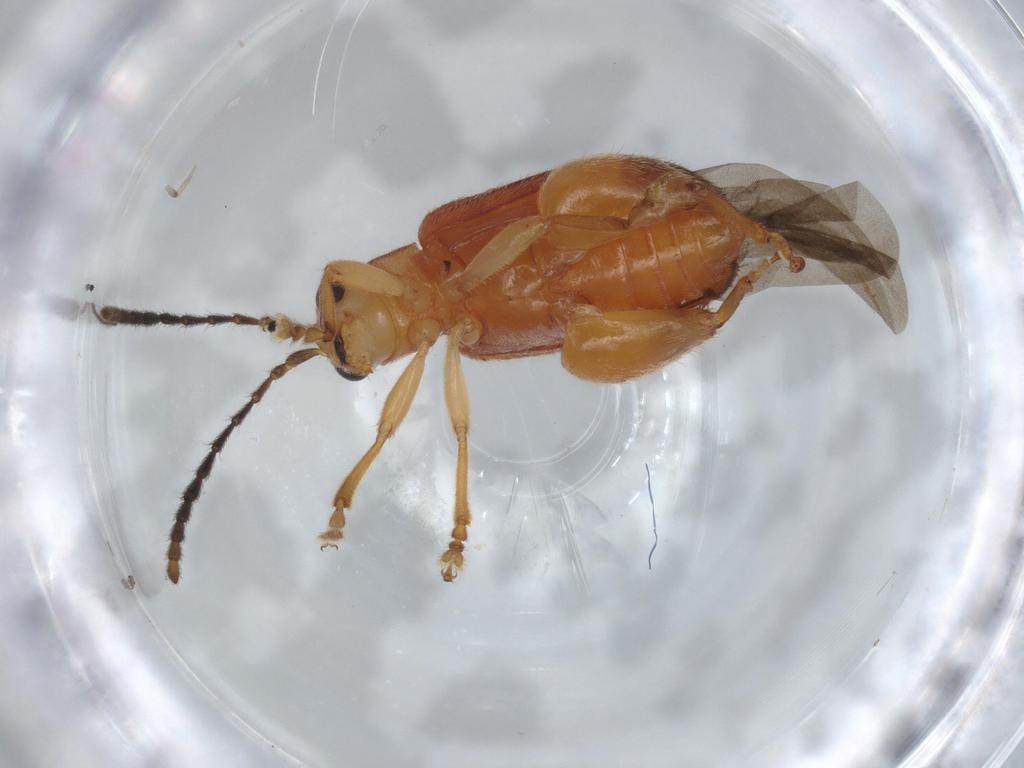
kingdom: Animalia
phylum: Arthropoda
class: Insecta
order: Coleoptera
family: Chrysomelidae
